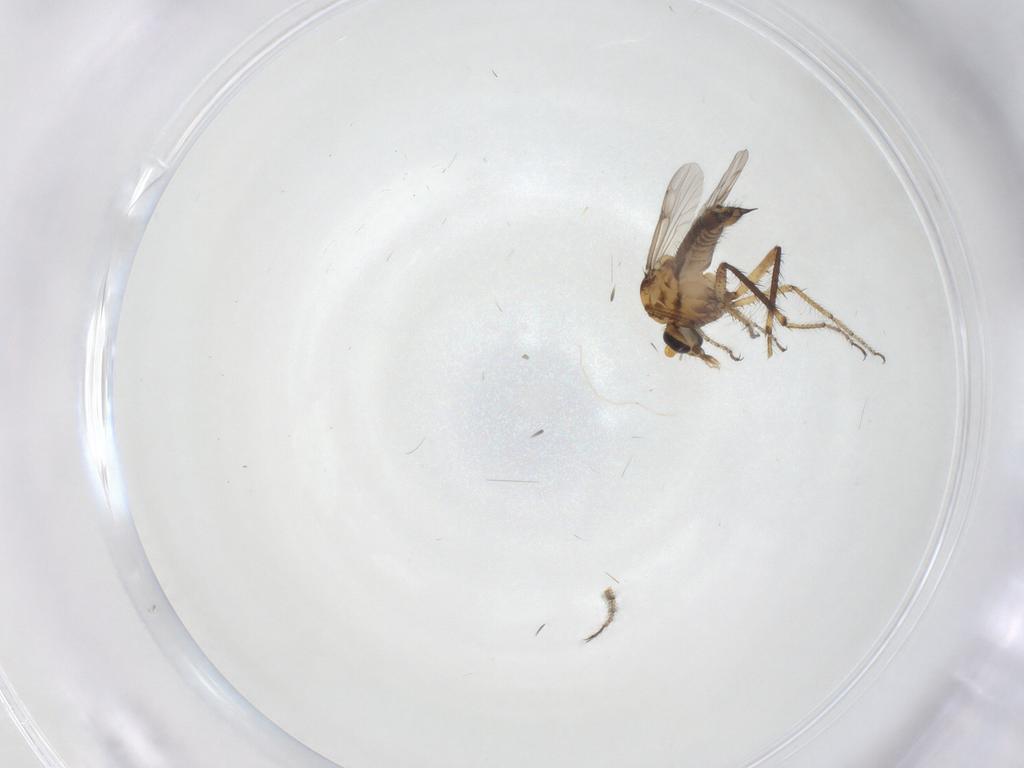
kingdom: Animalia
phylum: Arthropoda
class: Insecta
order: Diptera
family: Ceratopogonidae
